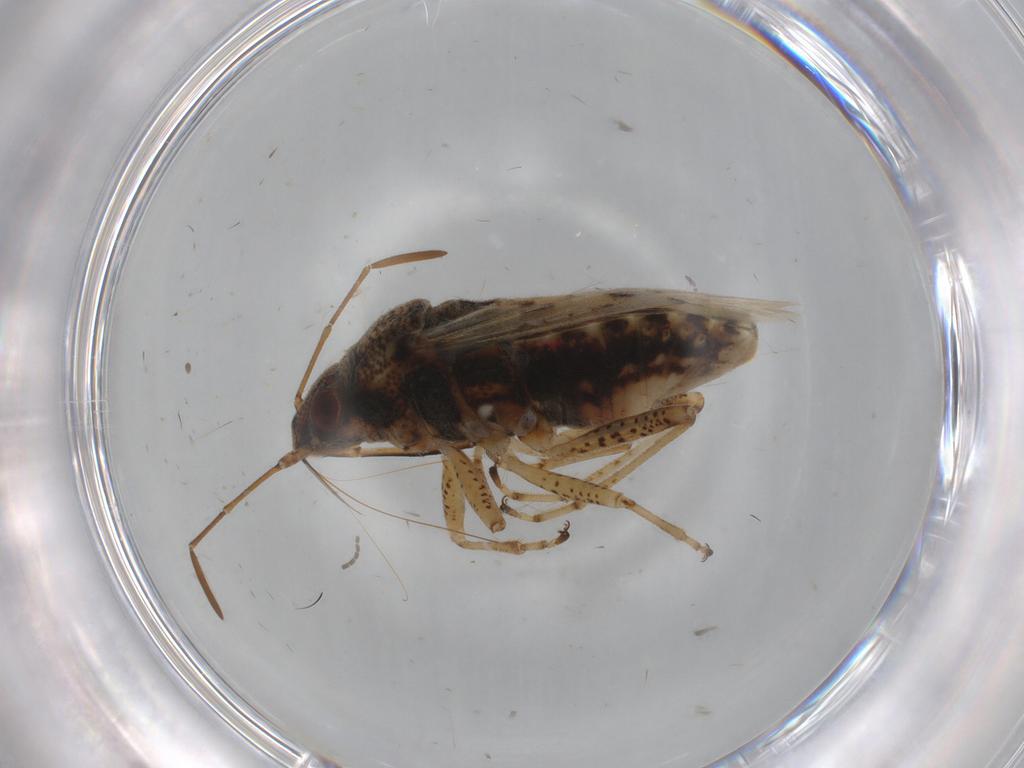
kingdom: Animalia
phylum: Arthropoda
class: Insecta
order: Hemiptera
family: Lygaeidae
